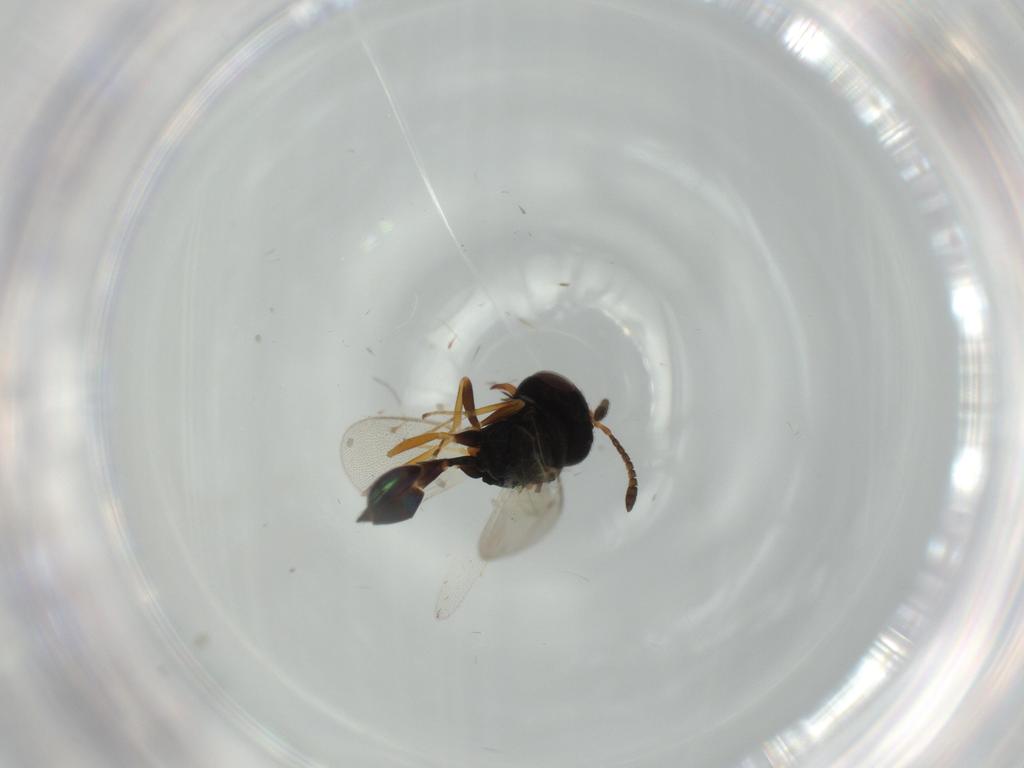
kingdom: Animalia
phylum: Arthropoda
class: Insecta
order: Hymenoptera
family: Pteromalidae
